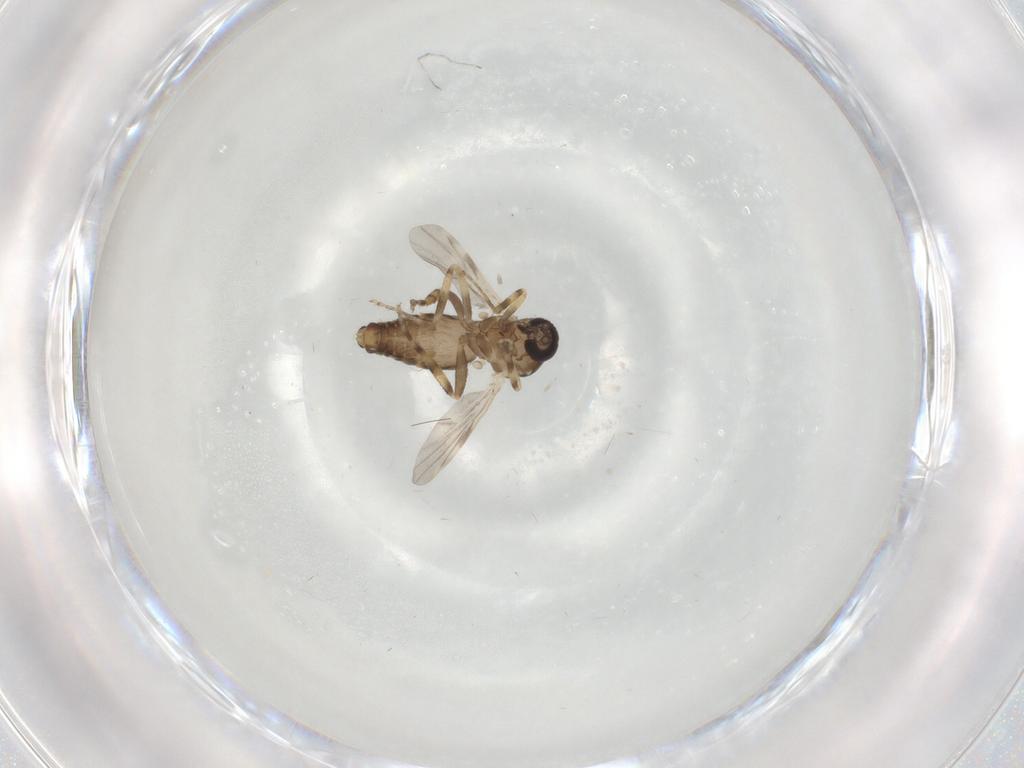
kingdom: Animalia
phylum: Arthropoda
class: Insecta
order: Diptera
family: Ceratopogonidae
